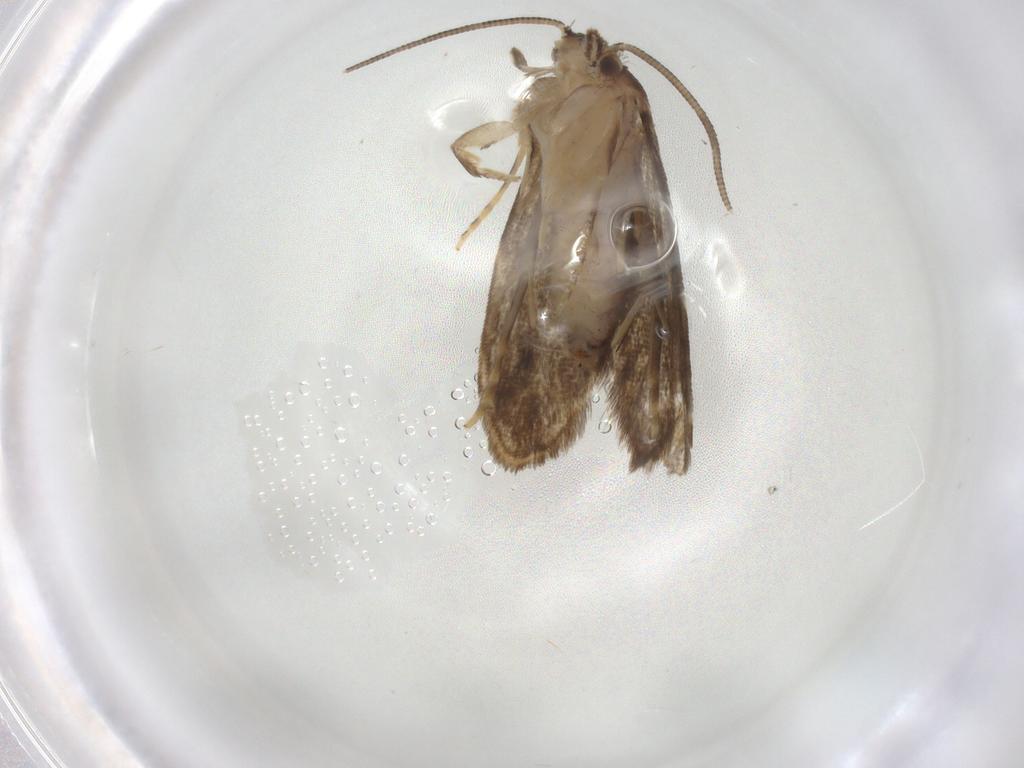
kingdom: Animalia
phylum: Arthropoda
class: Insecta
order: Lepidoptera
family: Dryadaulidae
